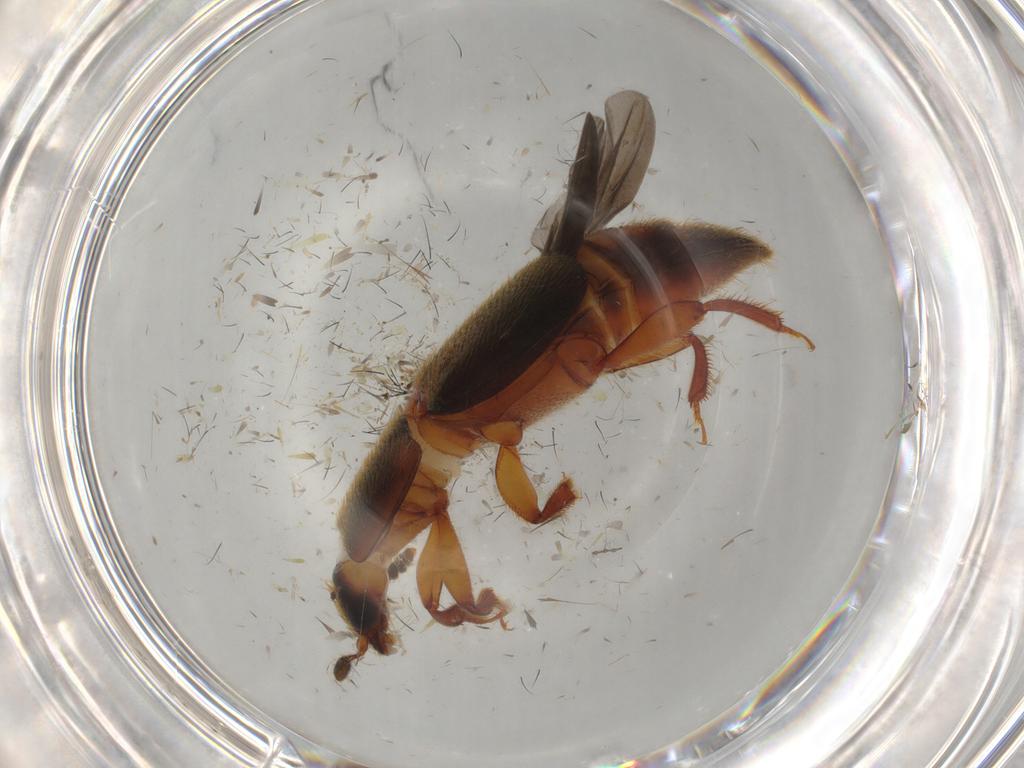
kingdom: Animalia
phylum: Arthropoda
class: Insecta
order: Coleoptera
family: Nitidulidae
